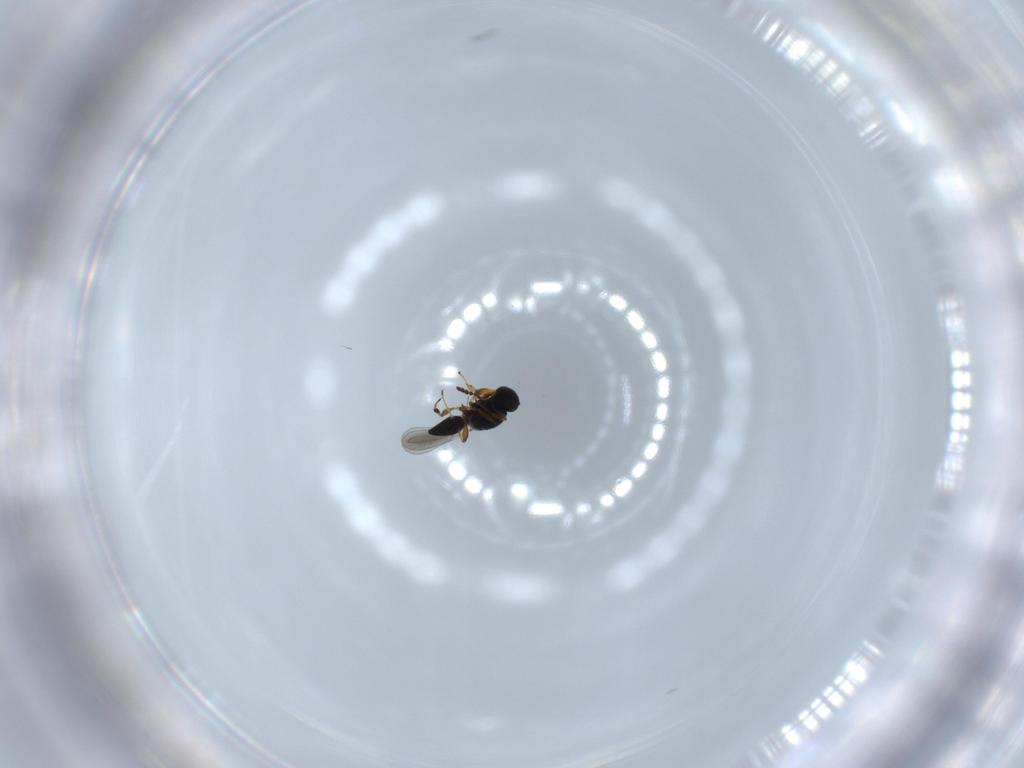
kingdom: Animalia
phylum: Arthropoda
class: Insecta
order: Hymenoptera
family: Platygastridae
